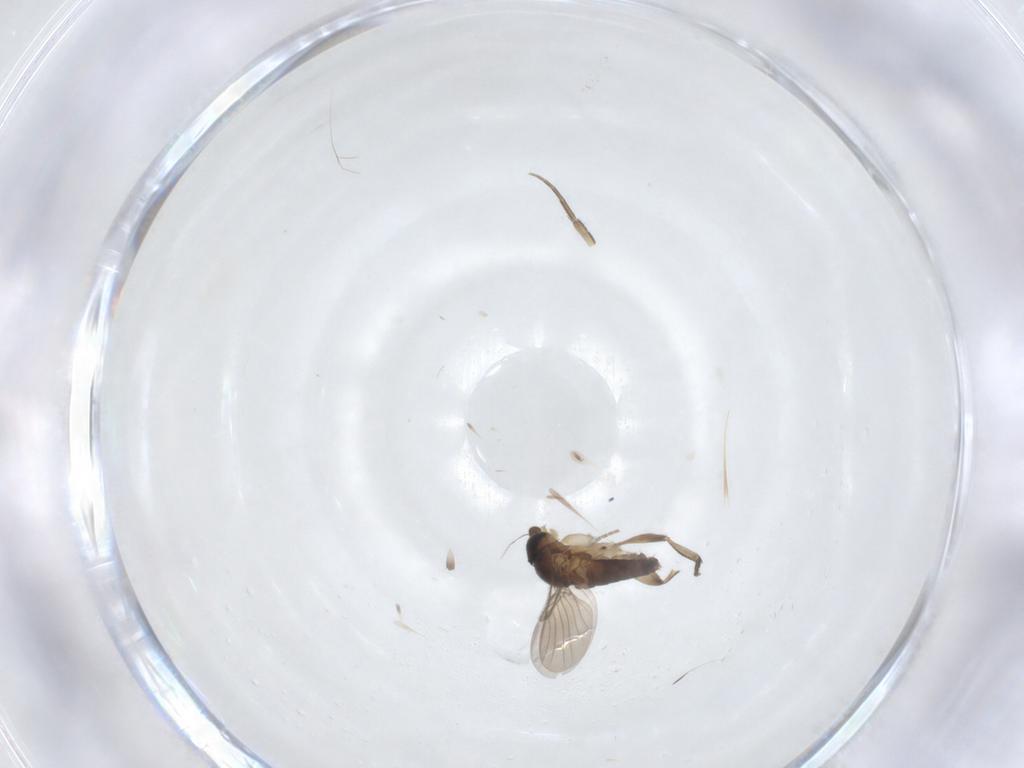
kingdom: Animalia
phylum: Arthropoda
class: Insecta
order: Diptera
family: Phoridae
